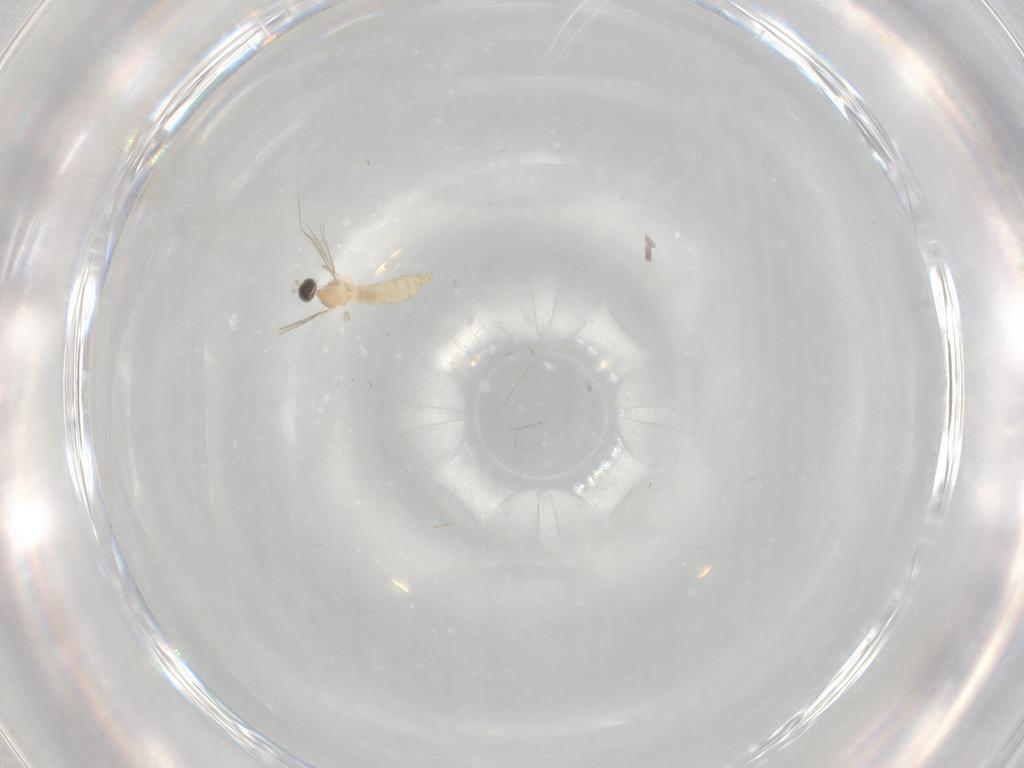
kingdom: Animalia
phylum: Arthropoda
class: Insecta
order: Diptera
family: Cecidomyiidae
